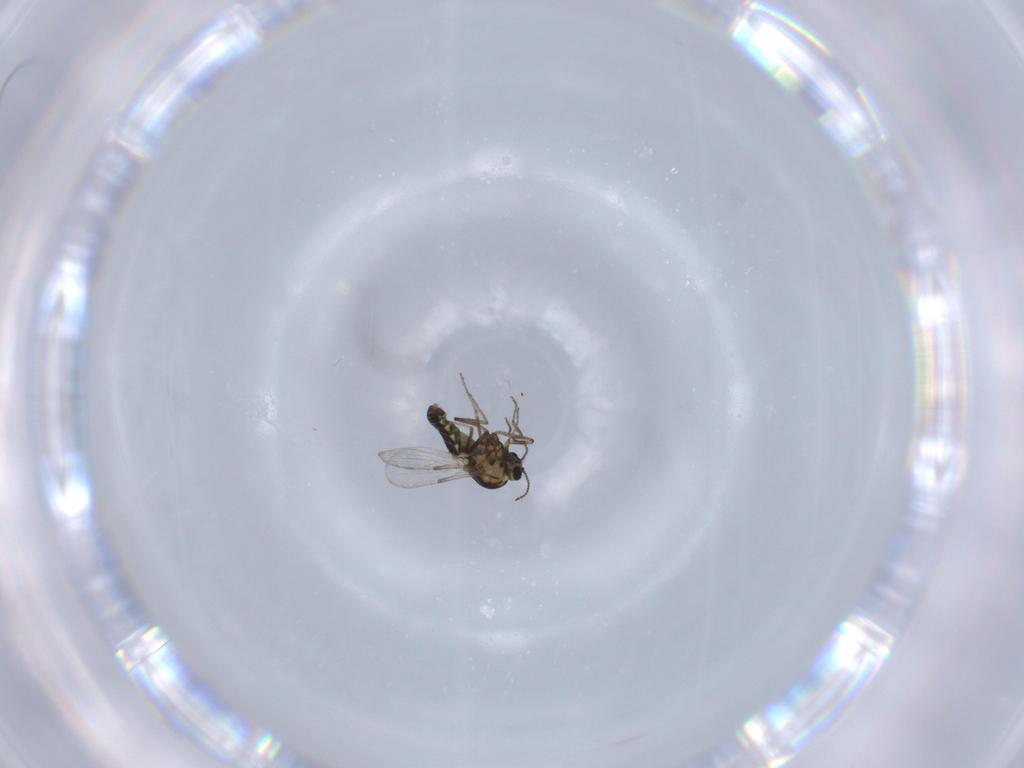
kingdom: Animalia
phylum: Arthropoda
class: Insecta
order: Diptera
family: Ceratopogonidae
